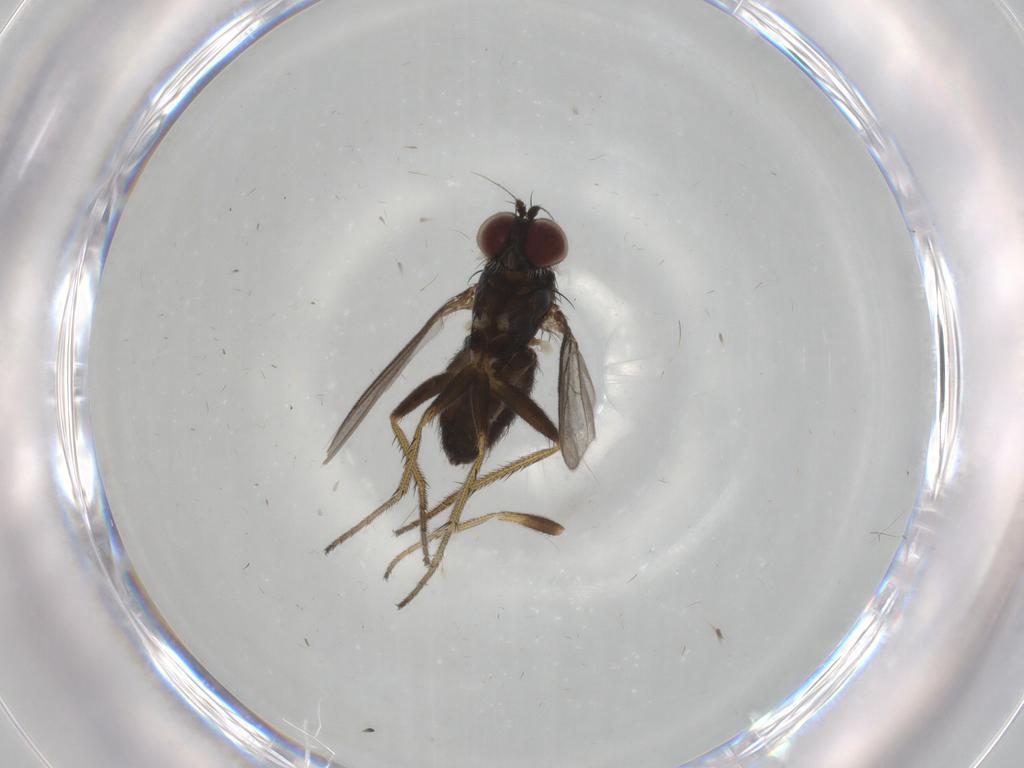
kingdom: Animalia
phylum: Arthropoda
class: Insecta
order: Diptera
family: Dolichopodidae
